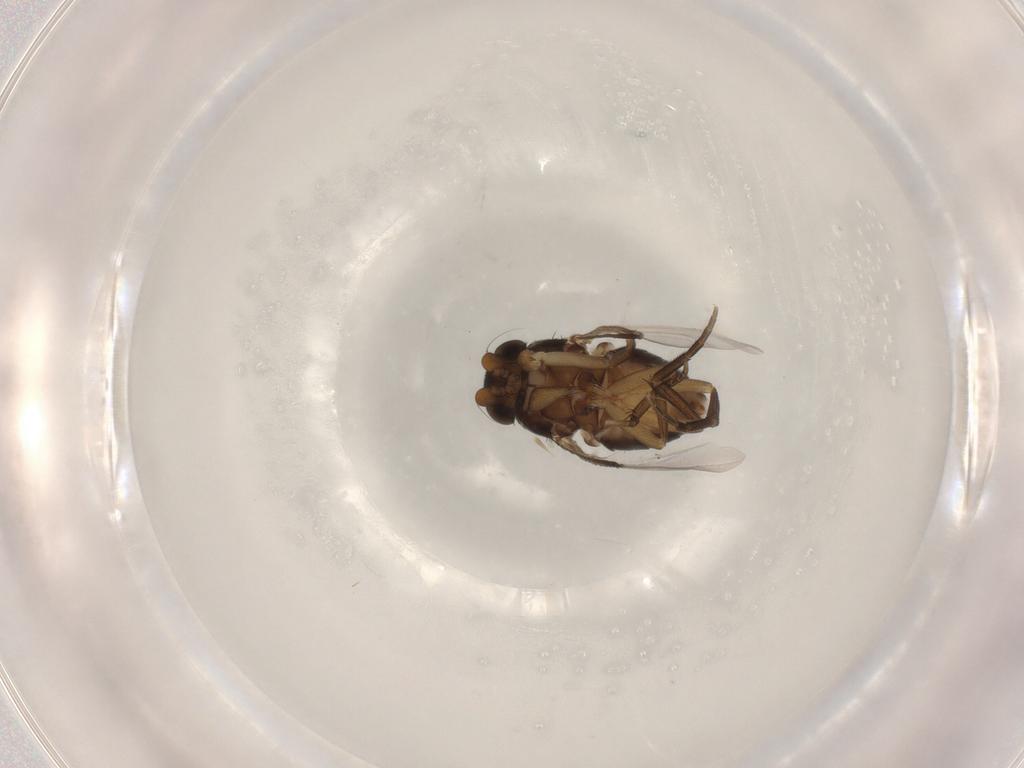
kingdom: Animalia
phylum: Arthropoda
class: Insecta
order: Diptera
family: Phoridae
